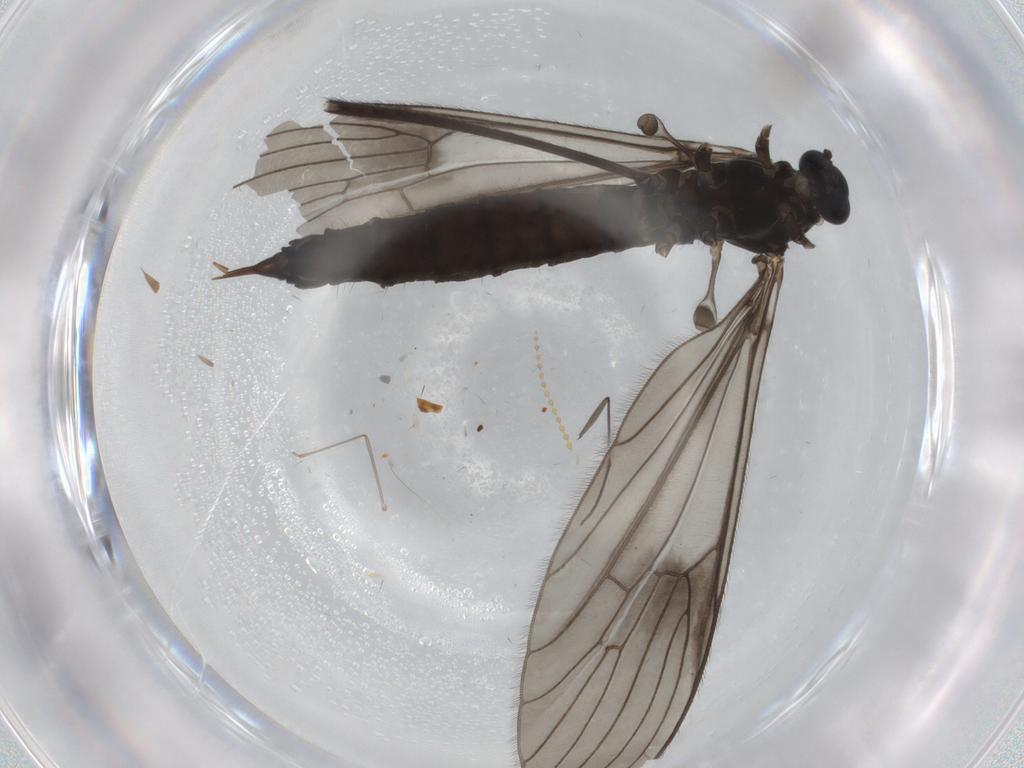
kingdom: Animalia
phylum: Arthropoda
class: Insecta
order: Diptera
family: Limoniidae
